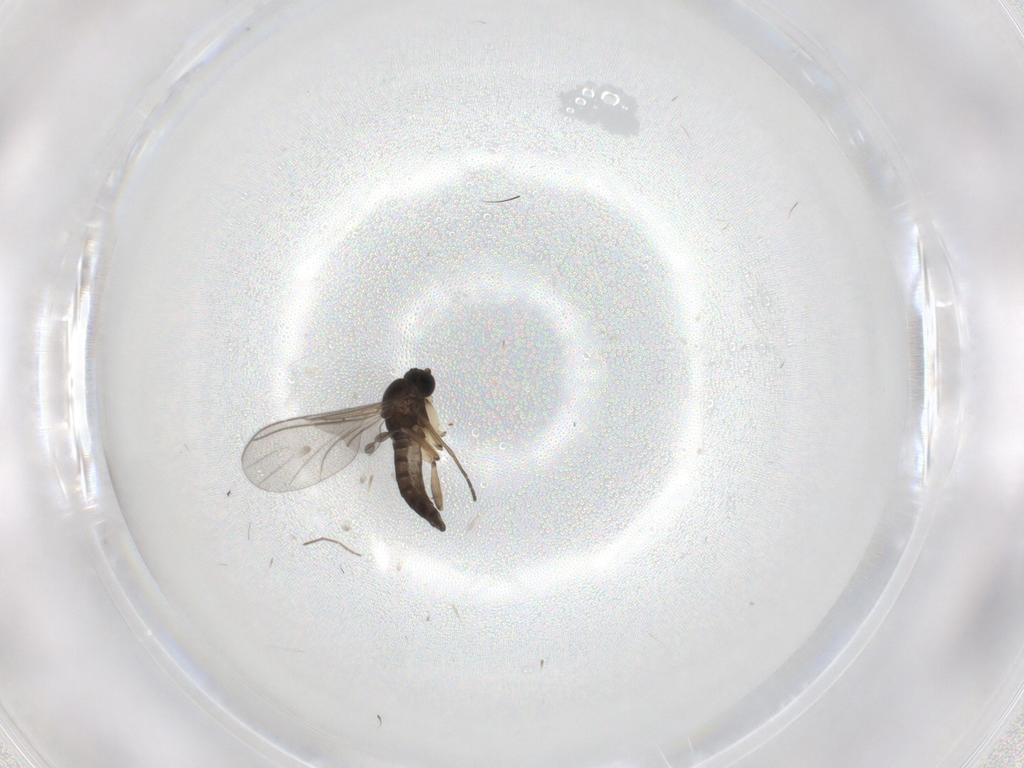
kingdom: Animalia
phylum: Arthropoda
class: Insecta
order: Diptera
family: Sciaridae
